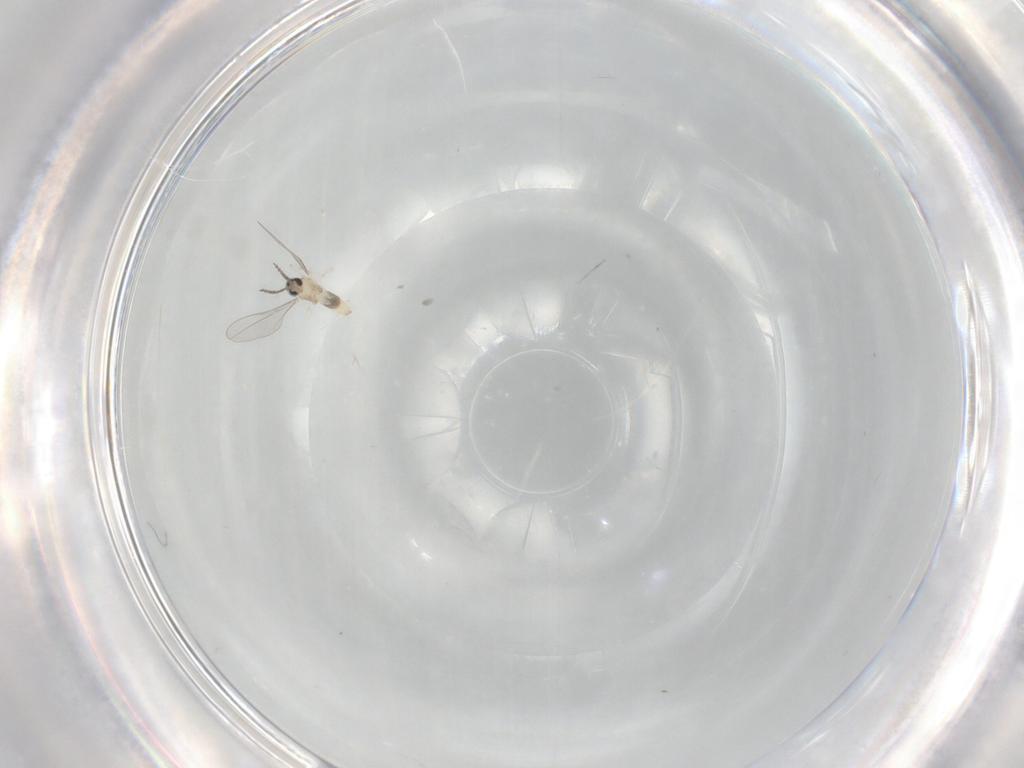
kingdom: Animalia
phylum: Arthropoda
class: Insecta
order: Diptera
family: Cecidomyiidae
